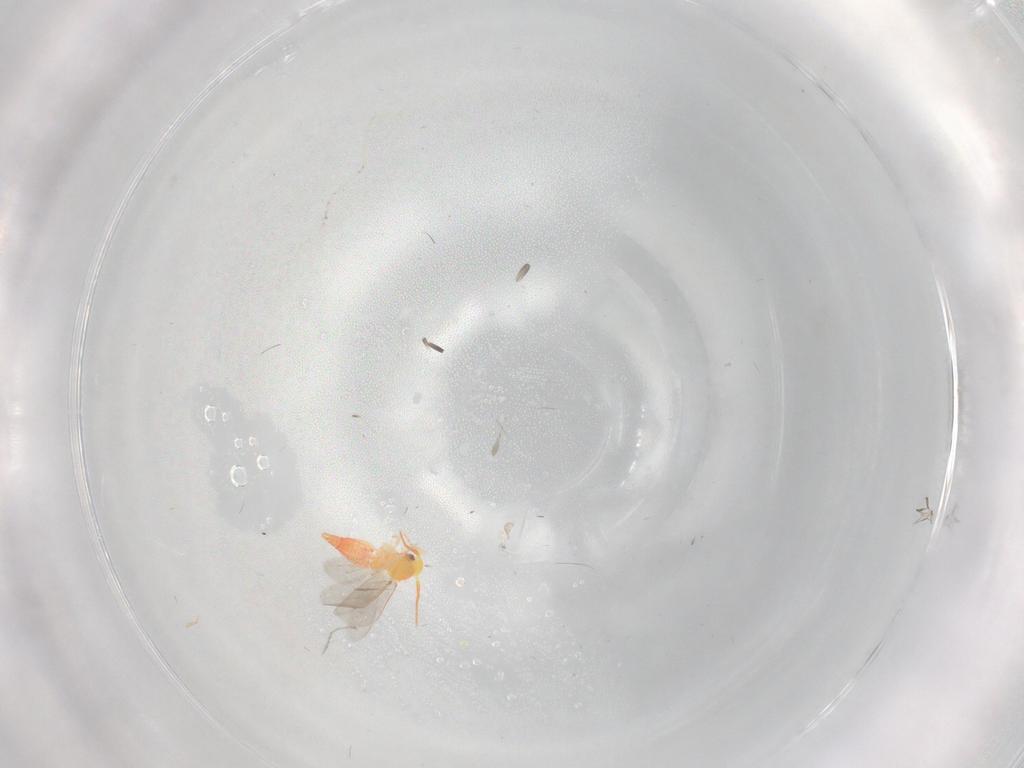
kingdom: Animalia
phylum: Arthropoda
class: Insecta
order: Hemiptera
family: Aleyrodidae
